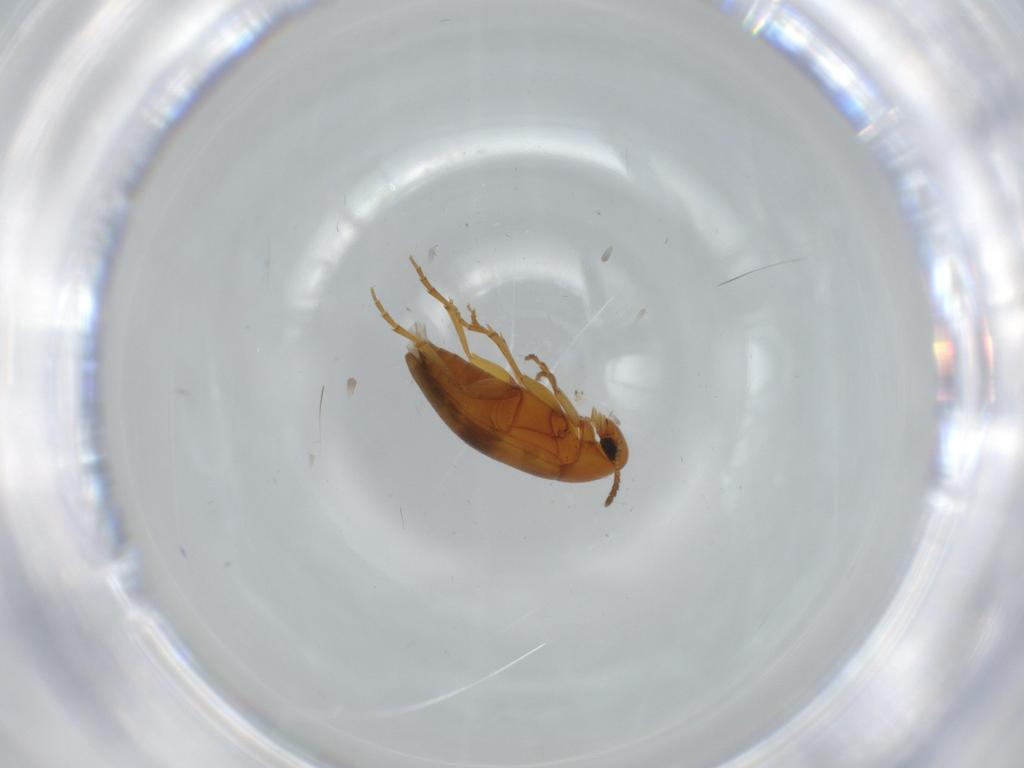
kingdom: Animalia
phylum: Arthropoda
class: Insecta
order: Coleoptera
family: Scraptiidae
